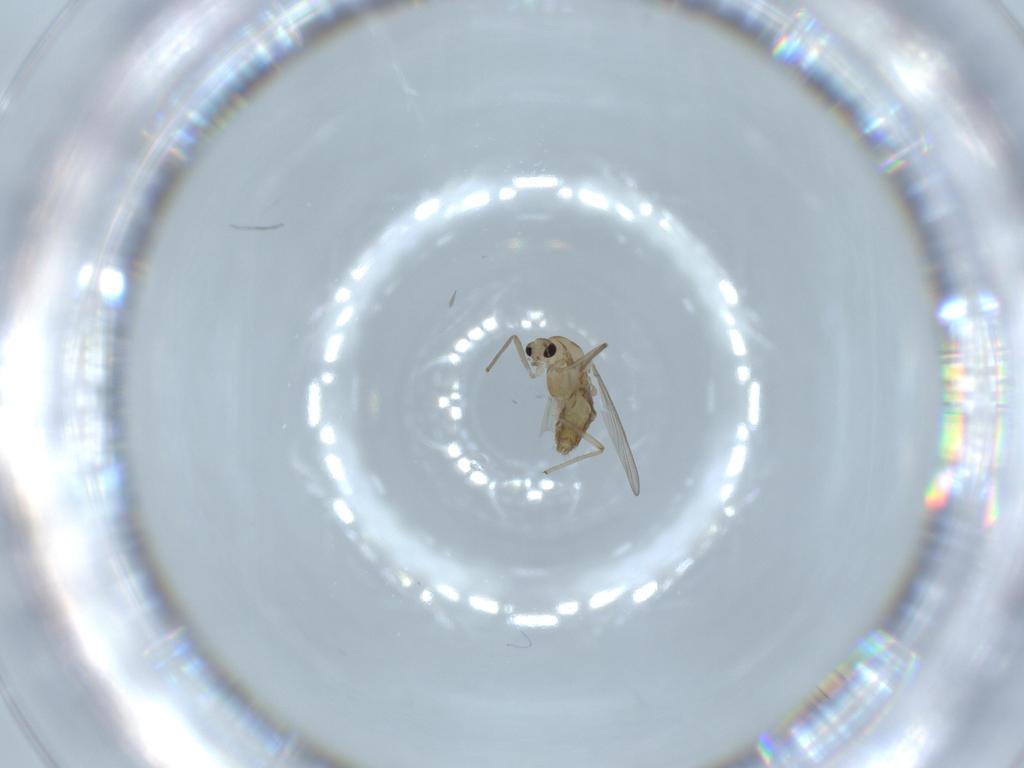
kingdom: Animalia
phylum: Arthropoda
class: Insecta
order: Diptera
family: Chironomidae
